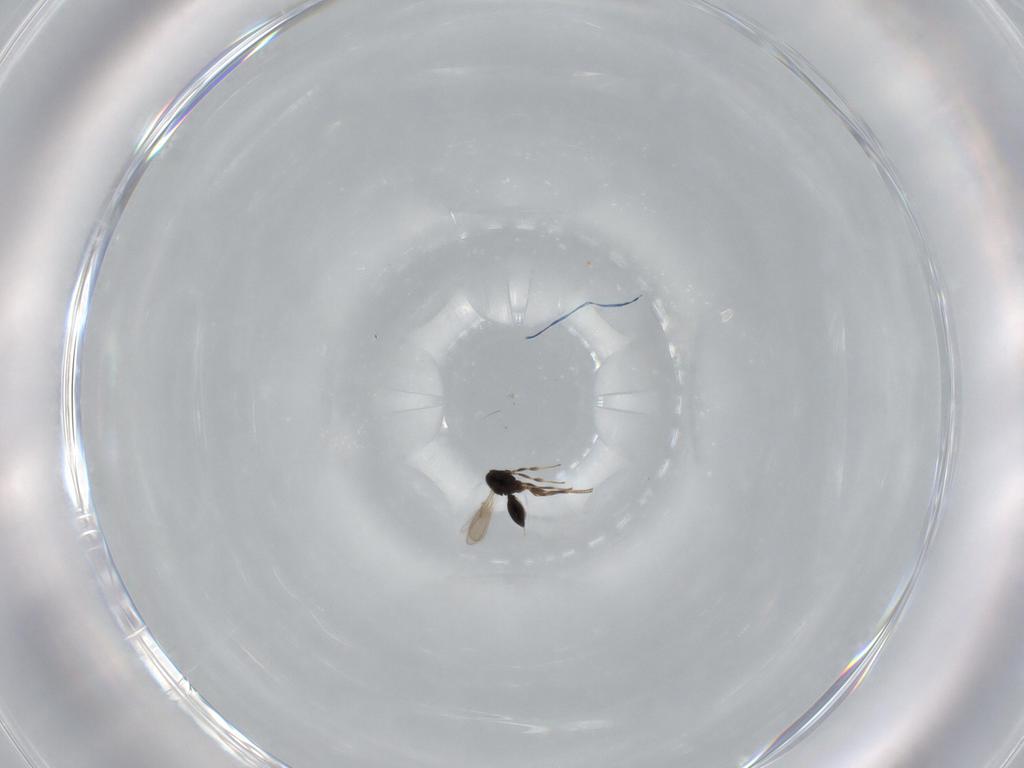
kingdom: Animalia
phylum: Arthropoda
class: Insecta
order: Hymenoptera
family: Scelionidae
